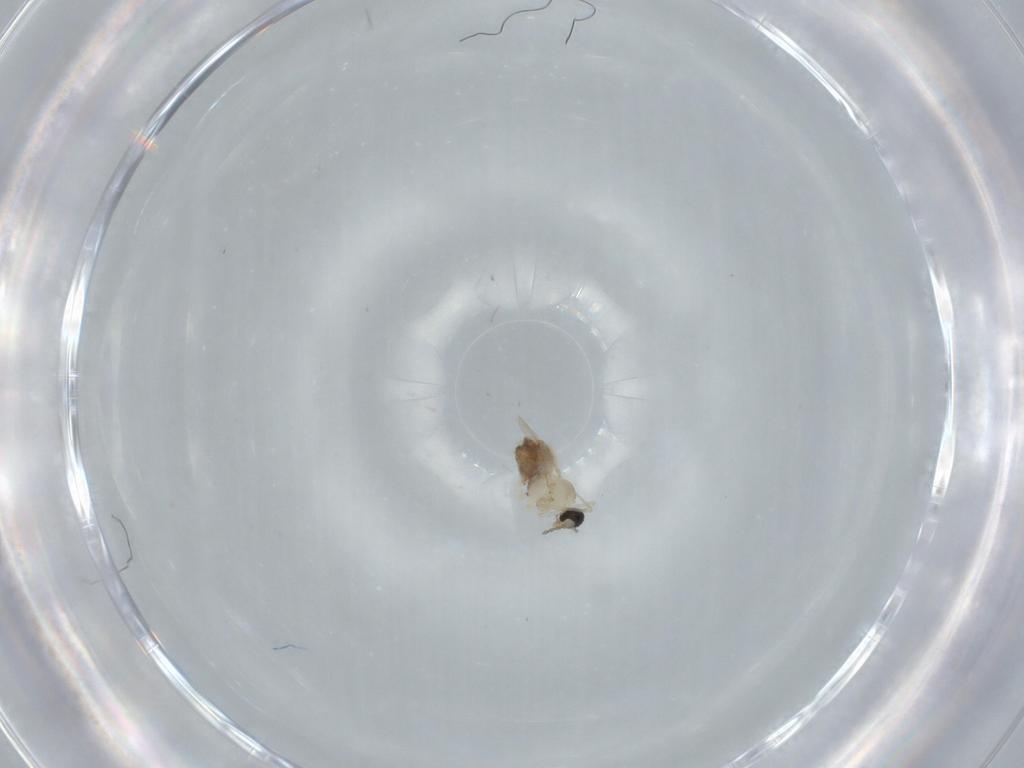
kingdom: Animalia
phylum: Arthropoda
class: Insecta
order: Diptera
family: Cecidomyiidae
